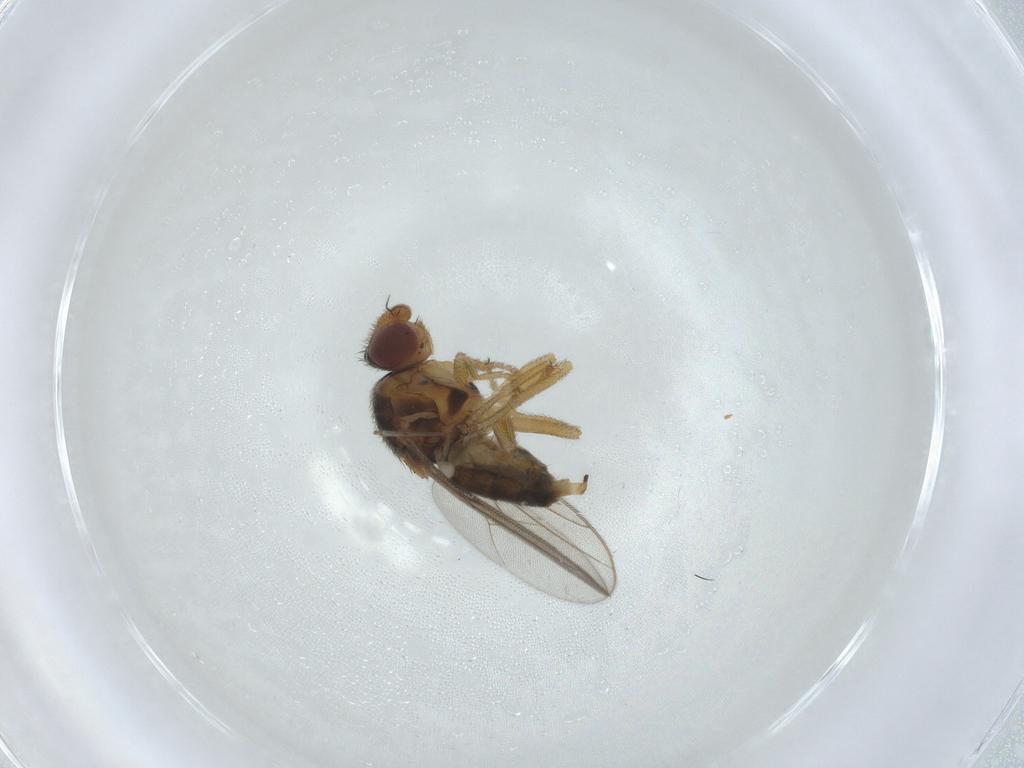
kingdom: Animalia
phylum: Arthropoda
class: Insecta
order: Diptera
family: Chloropidae
